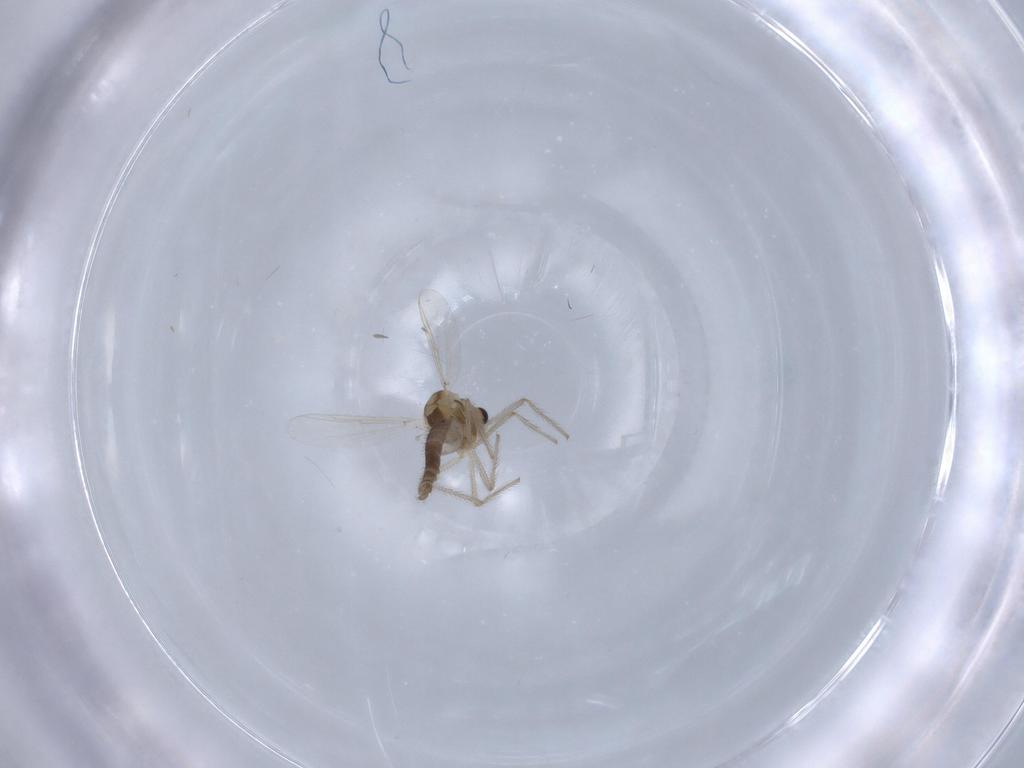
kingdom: Animalia
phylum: Arthropoda
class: Insecta
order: Diptera
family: Chironomidae
